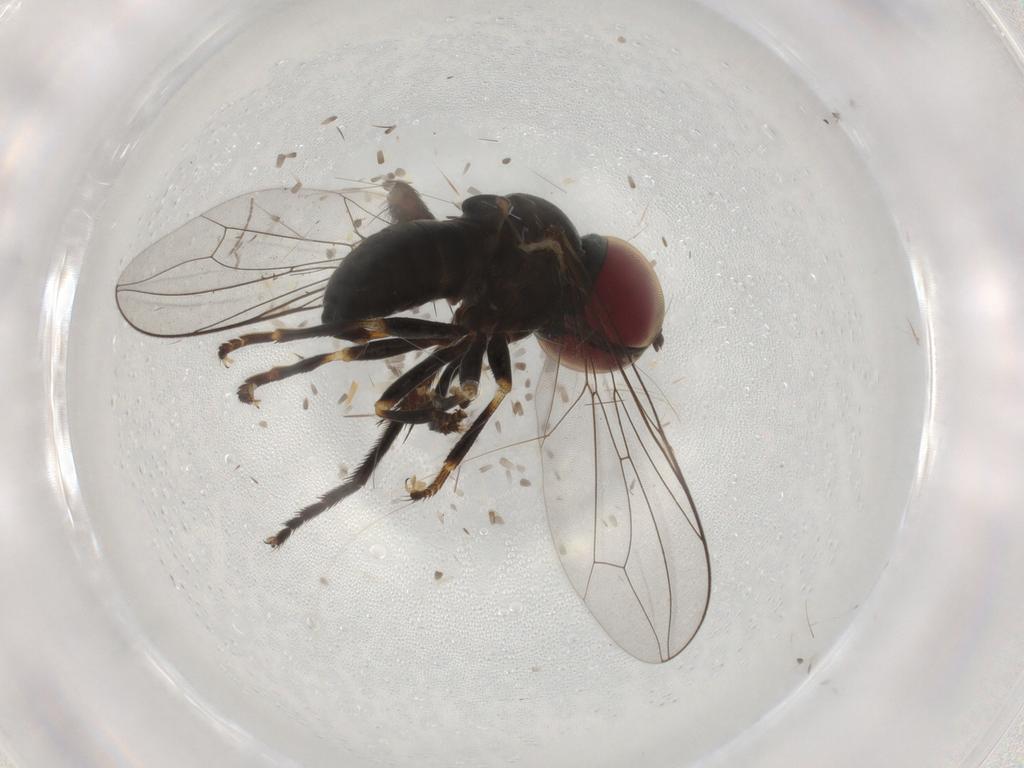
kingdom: Animalia
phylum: Arthropoda
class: Insecta
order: Diptera
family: Pipunculidae
